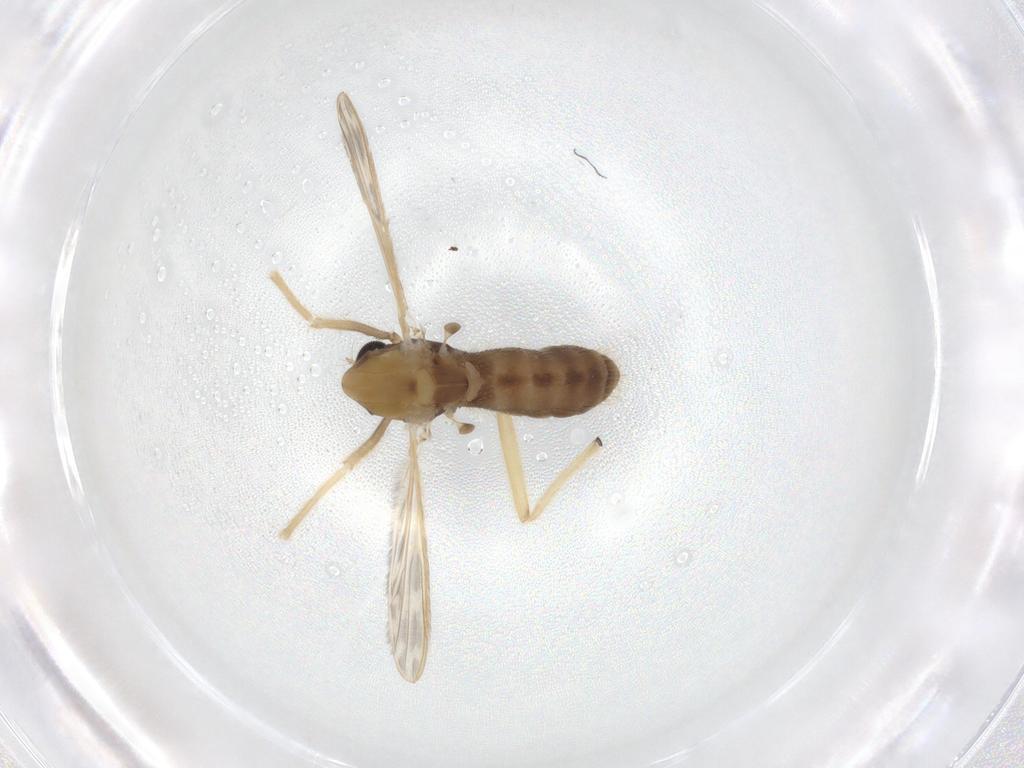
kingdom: Animalia
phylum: Arthropoda
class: Insecta
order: Diptera
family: Chironomidae
